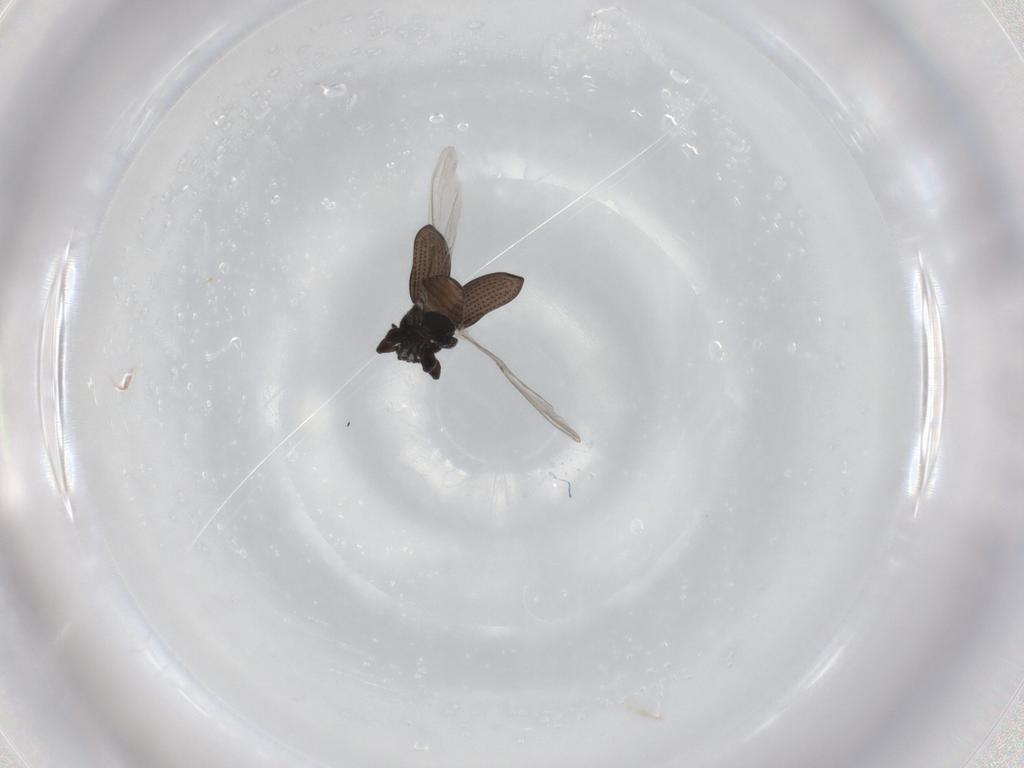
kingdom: Animalia
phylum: Arthropoda
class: Insecta
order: Coleoptera
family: Curculionidae
